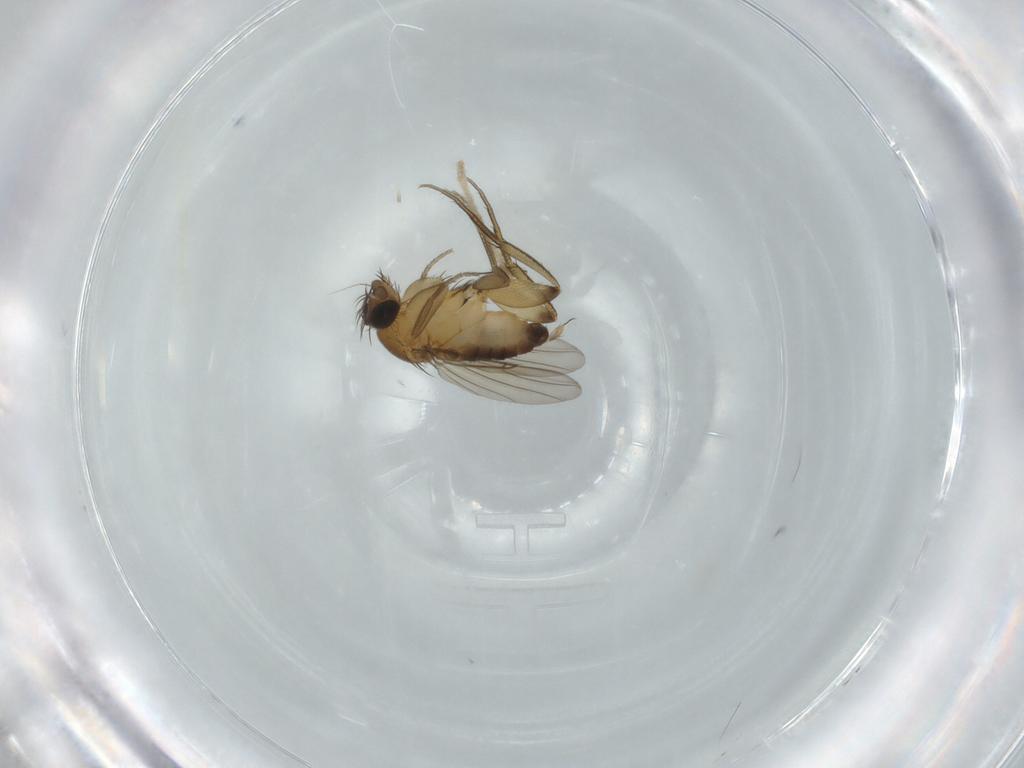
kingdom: Animalia
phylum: Arthropoda
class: Insecta
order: Diptera
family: Phoridae
